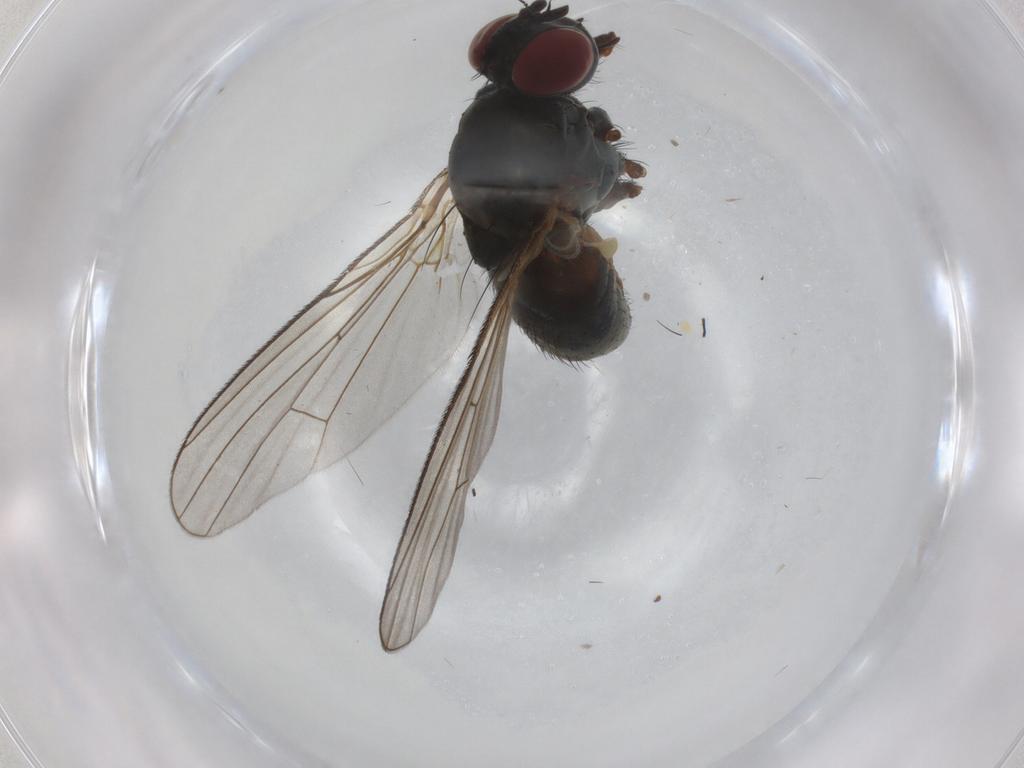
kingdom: Animalia
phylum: Arthropoda
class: Insecta
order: Diptera
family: Muscidae
